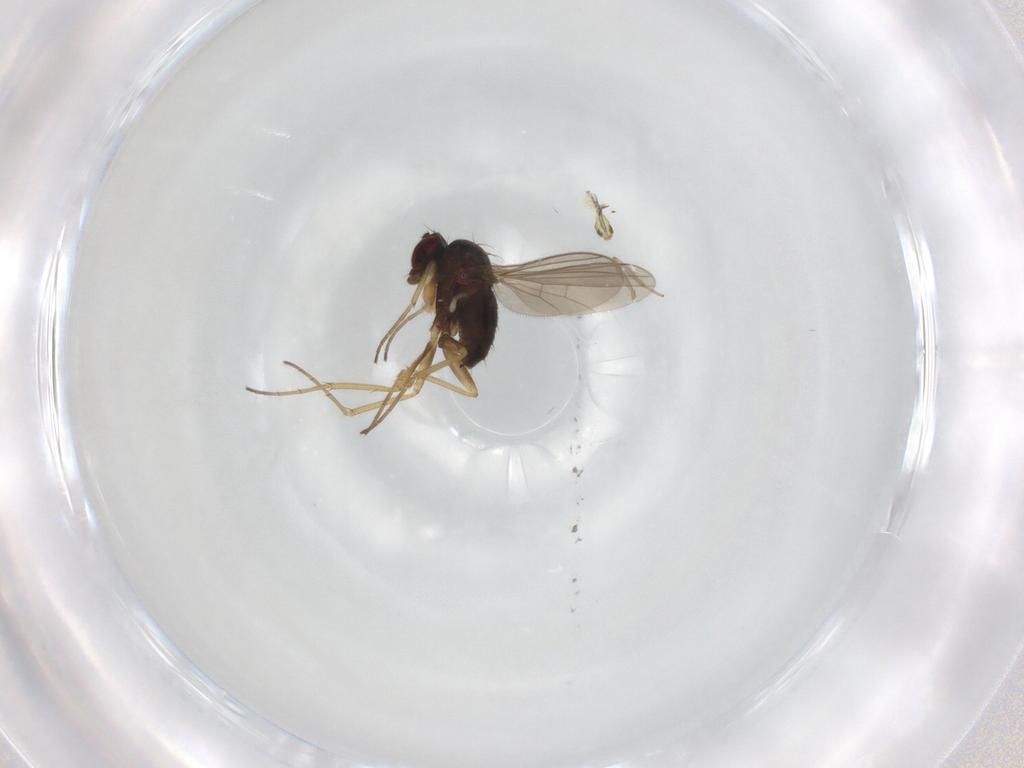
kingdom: Animalia
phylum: Arthropoda
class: Insecta
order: Diptera
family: Dolichopodidae
